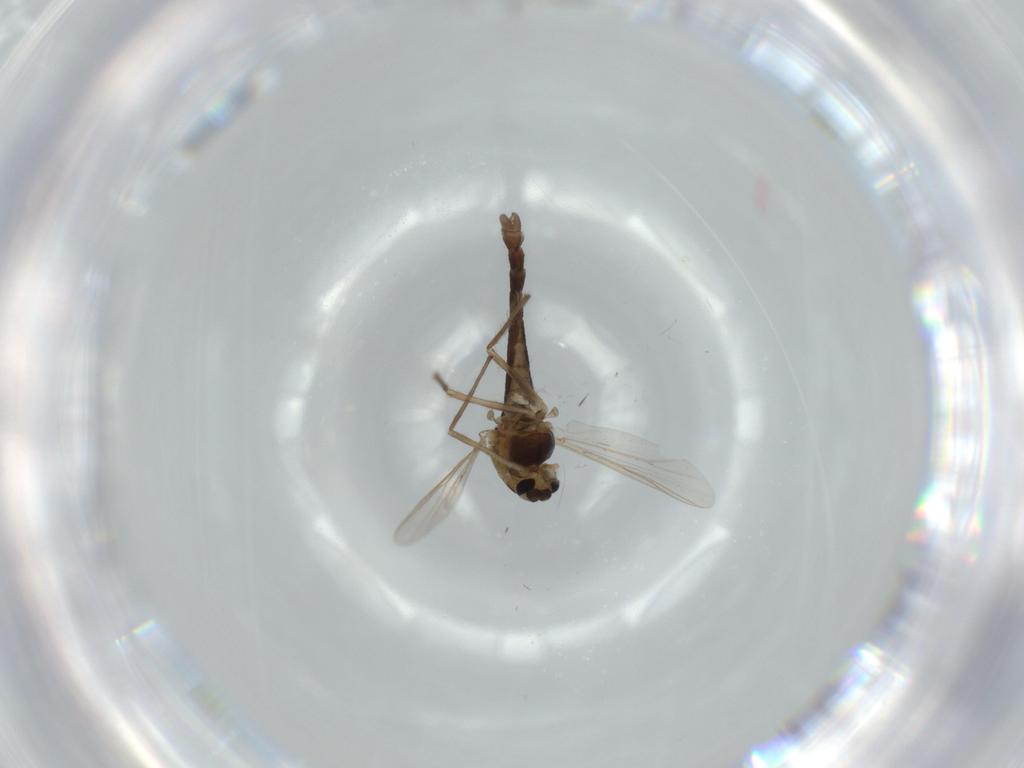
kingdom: Animalia
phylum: Arthropoda
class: Insecta
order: Diptera
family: Chironomidae
